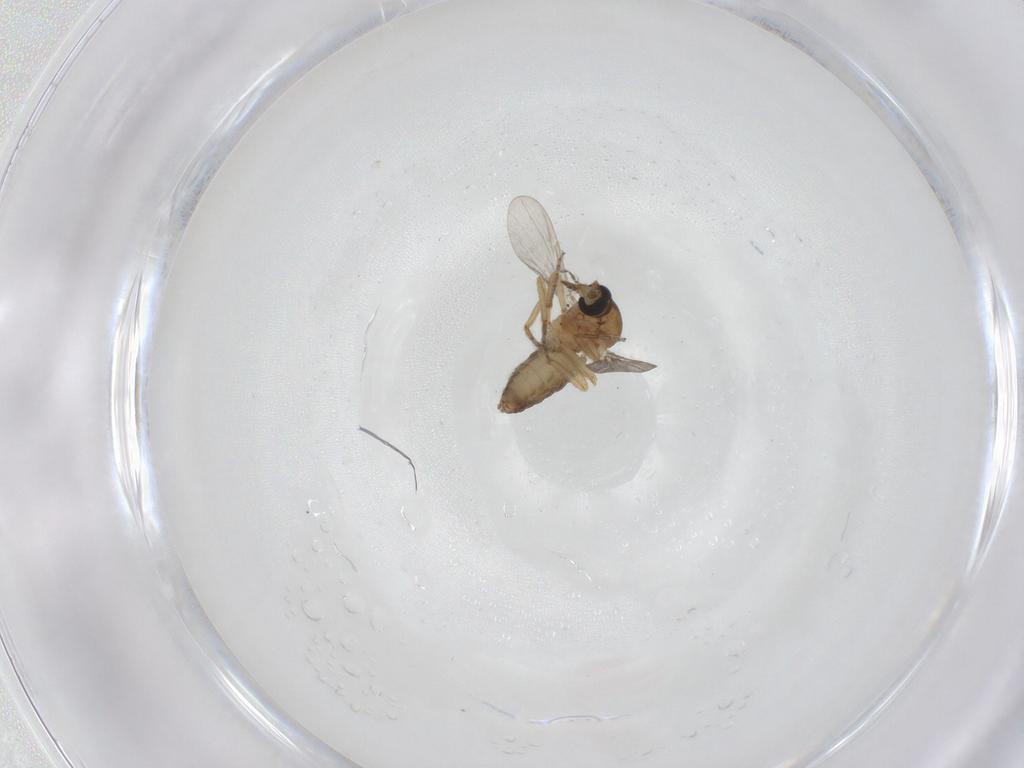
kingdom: Animalia
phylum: Arthropoda
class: Insecta
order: Diptera
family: Ceratopogonidae
